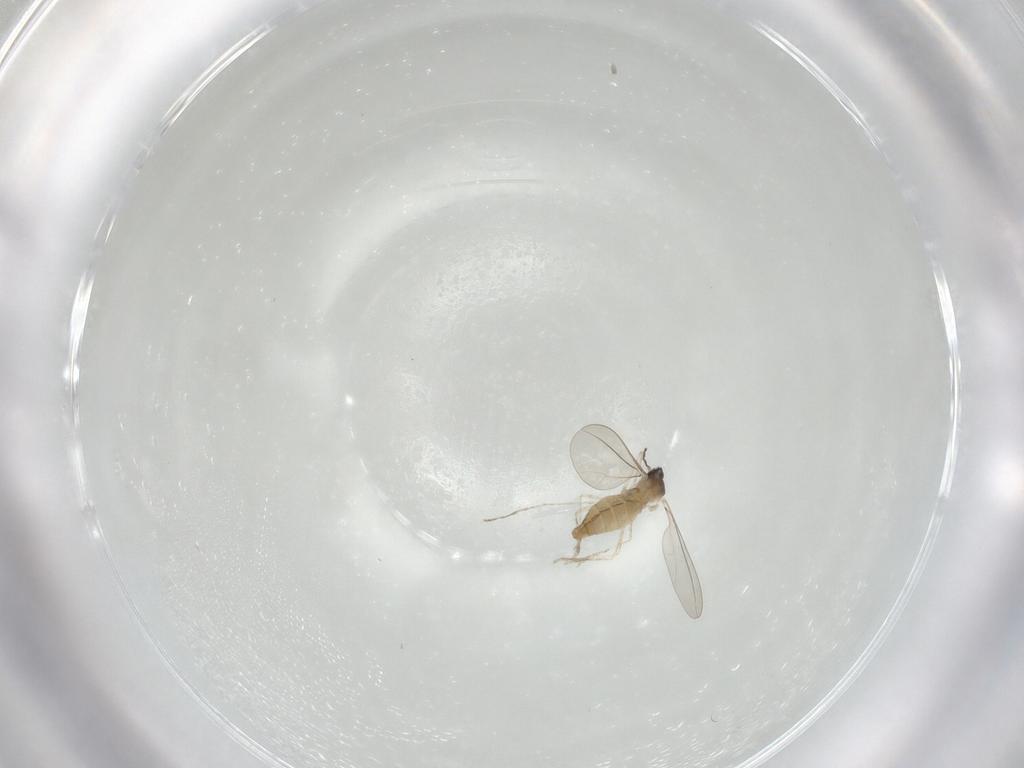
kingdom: Animalia
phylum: Arthropoda
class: Insecta
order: Diptera
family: Cecidomyiidae
